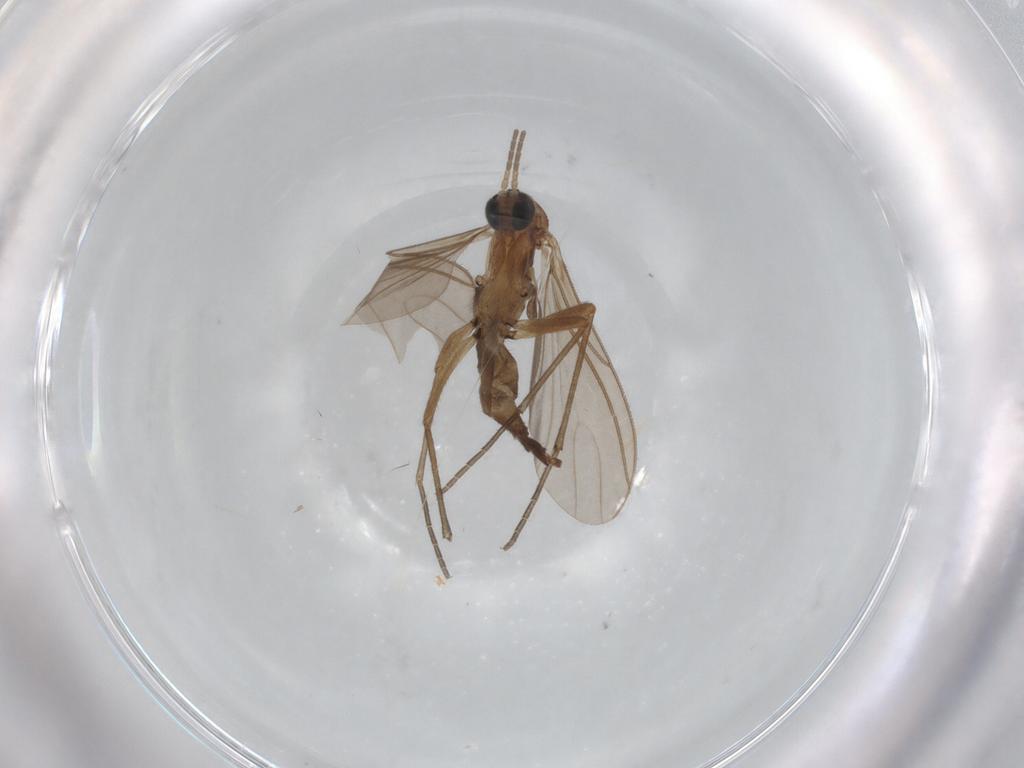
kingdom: Animalia
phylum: Arthropoda
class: Insecta
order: Diptera
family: Sciaridae
